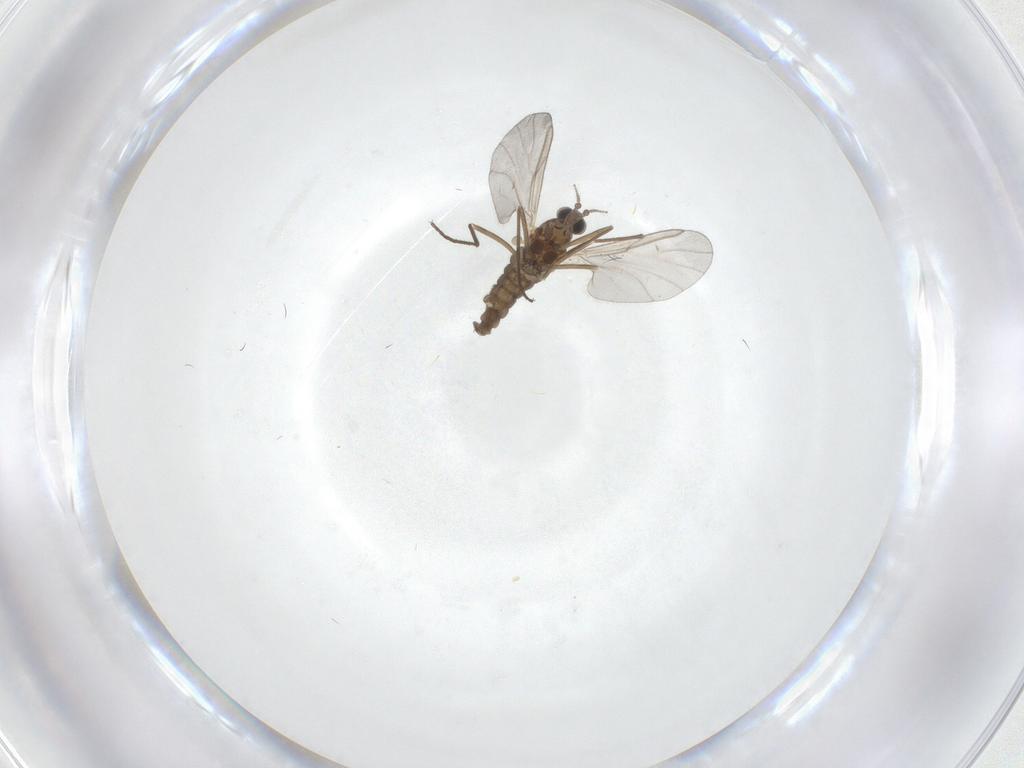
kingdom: Animalia
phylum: Arthropoda
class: Insecta
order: Diptera
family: Cecidomyiidae
